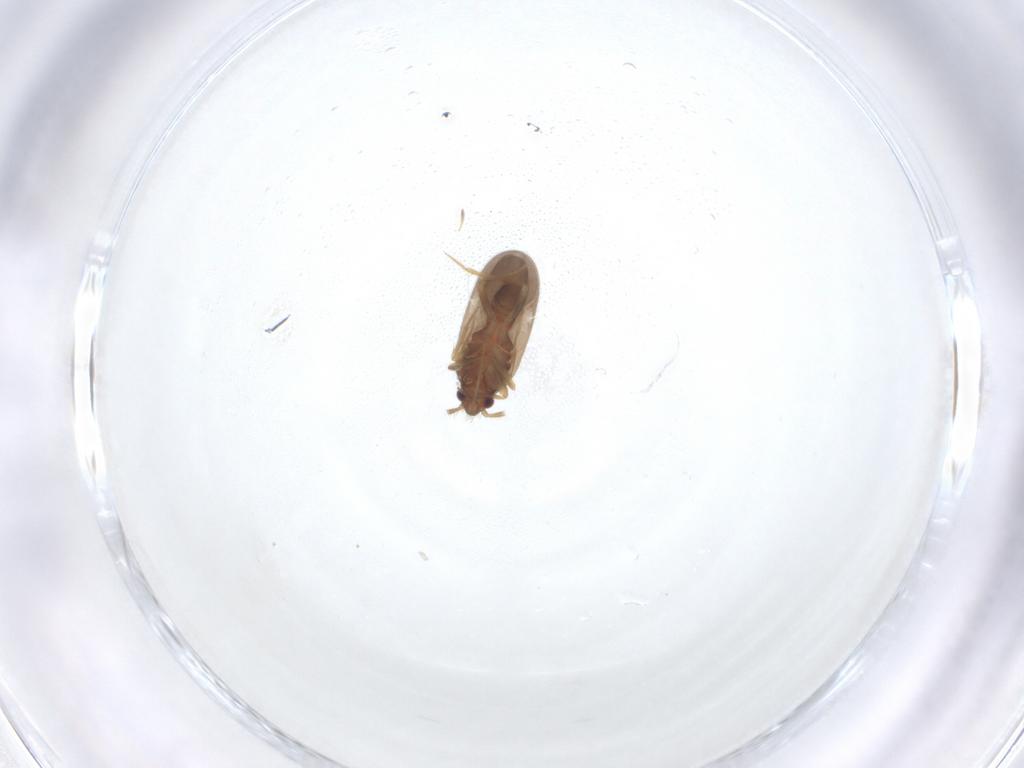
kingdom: Animalia
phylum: Arthropoda
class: Insecta
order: Hemiptera
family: Ceratocombidae
